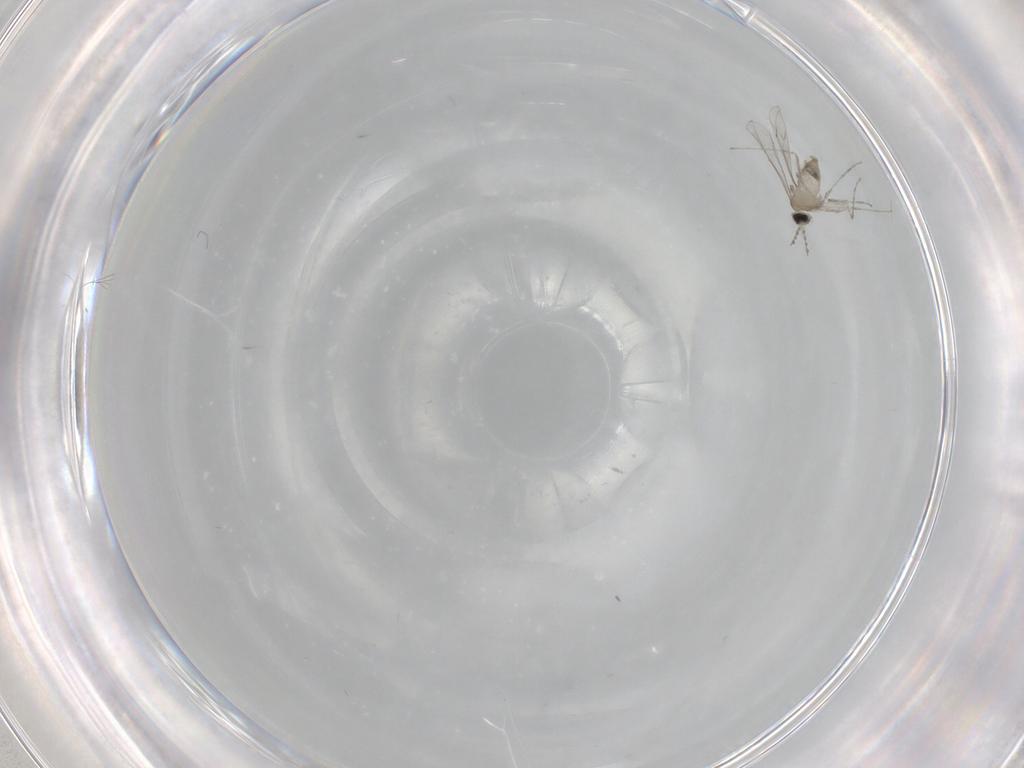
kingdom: Animalia
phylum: Arthropoda
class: Insecta
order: Diptera
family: Cecidomyiidae
